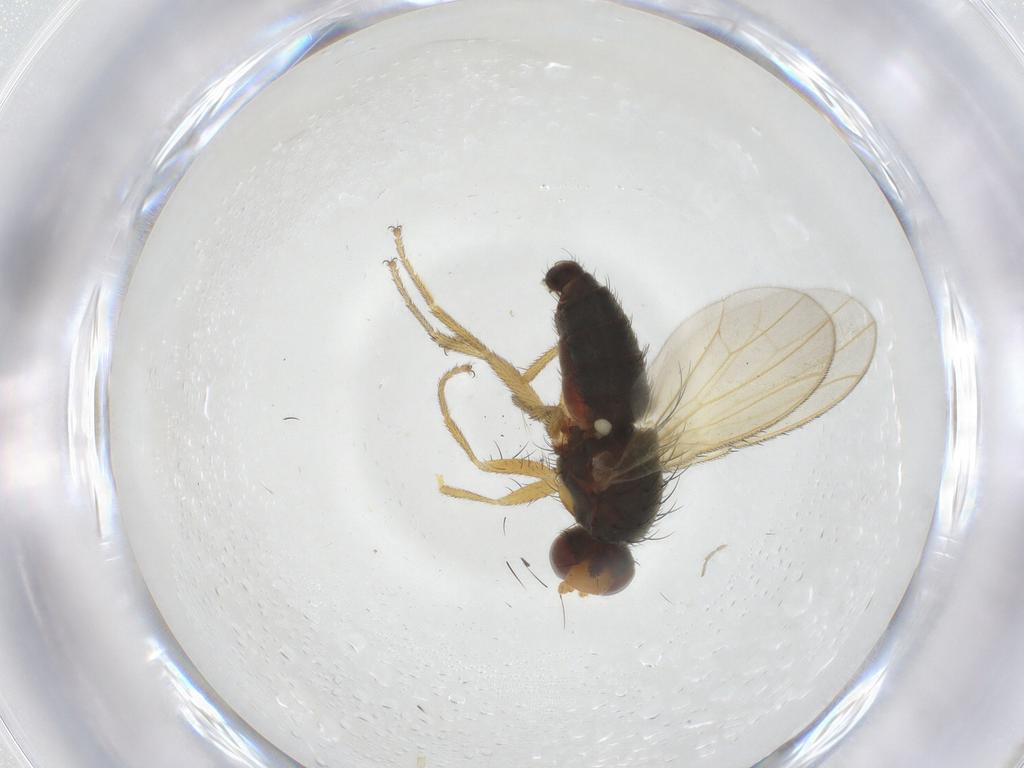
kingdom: Animalia
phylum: Arthropoda
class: Insecta
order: Diptera
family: Heleomyzidae
